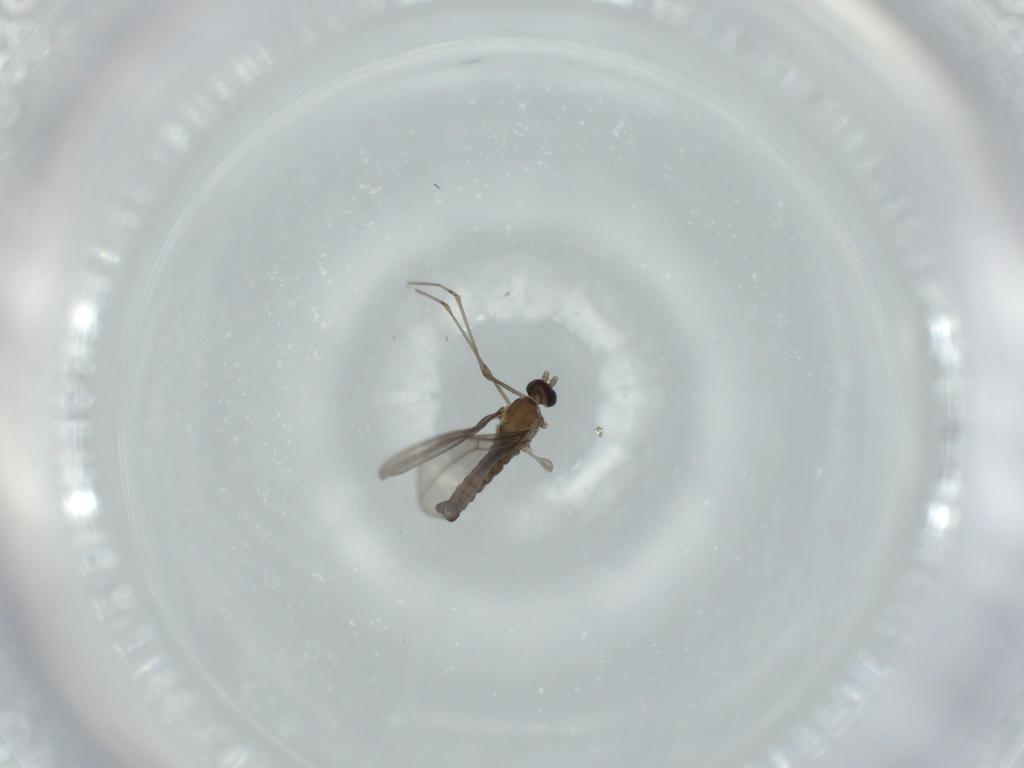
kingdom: Animalia
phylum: Arthropoda
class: Insecta
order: Diptera
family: Cecidomyiidae
